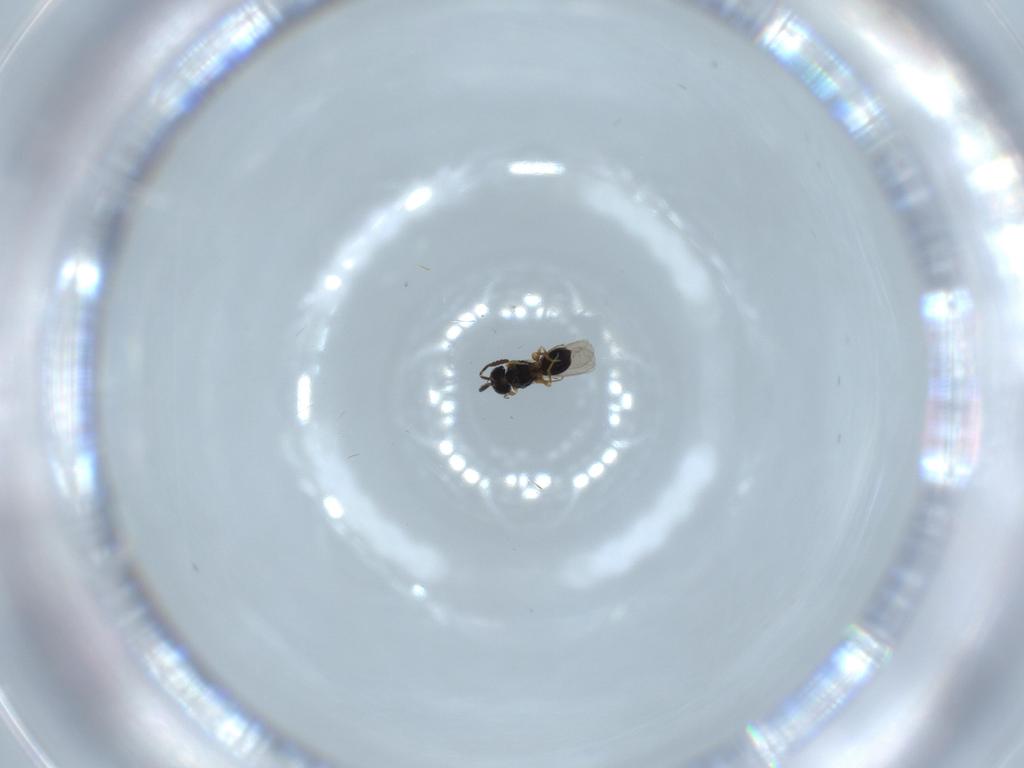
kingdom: Animalia
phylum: Arthropoda
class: Insecta
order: Hymenoptera
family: Scelionidae
